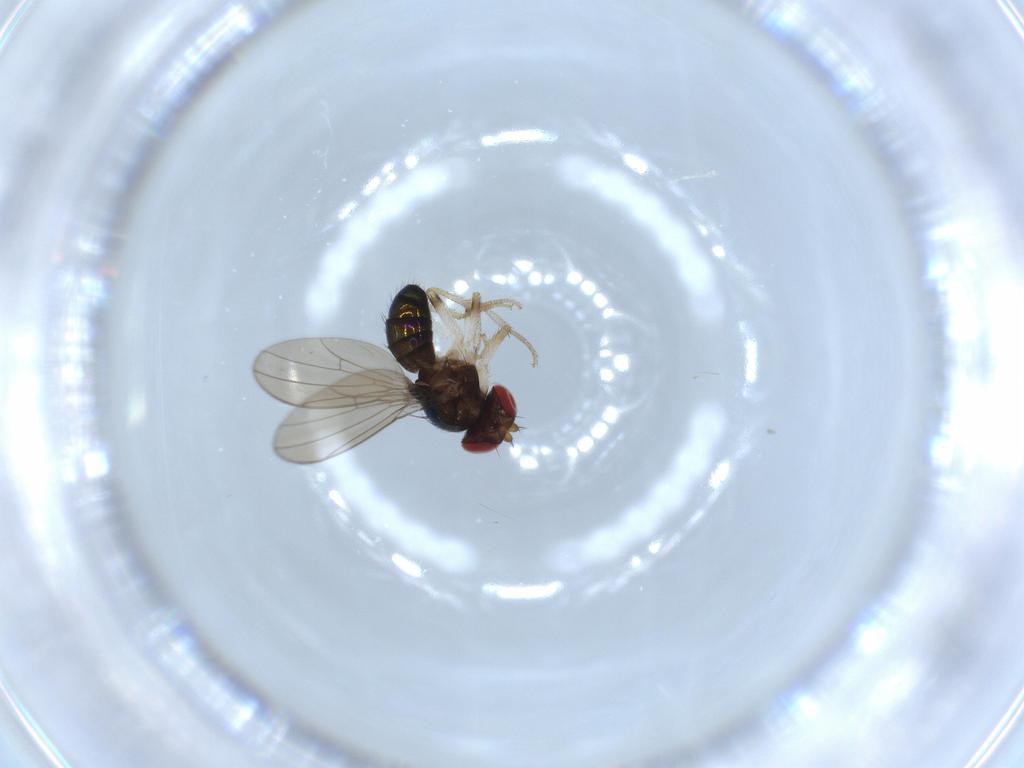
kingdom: Animalia
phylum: Arthropoda
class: Insecta
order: Diptera
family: Drosophilidae
